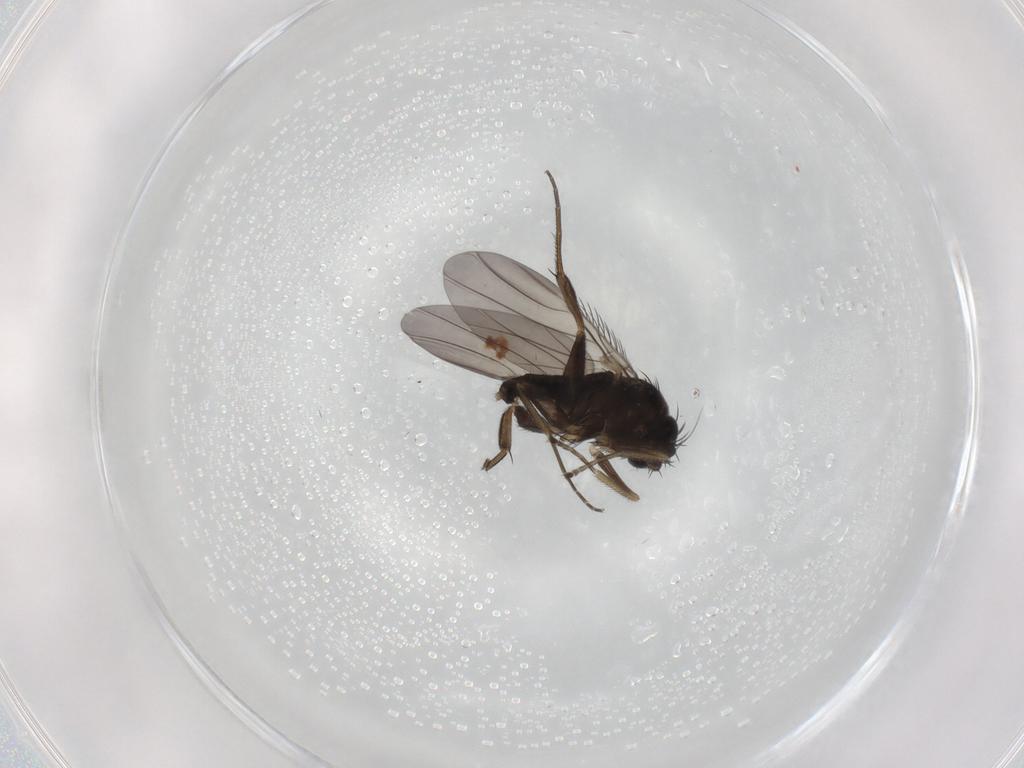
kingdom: Animalia
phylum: Arthropoda
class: Insecta
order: Diptera
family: Phoridae
